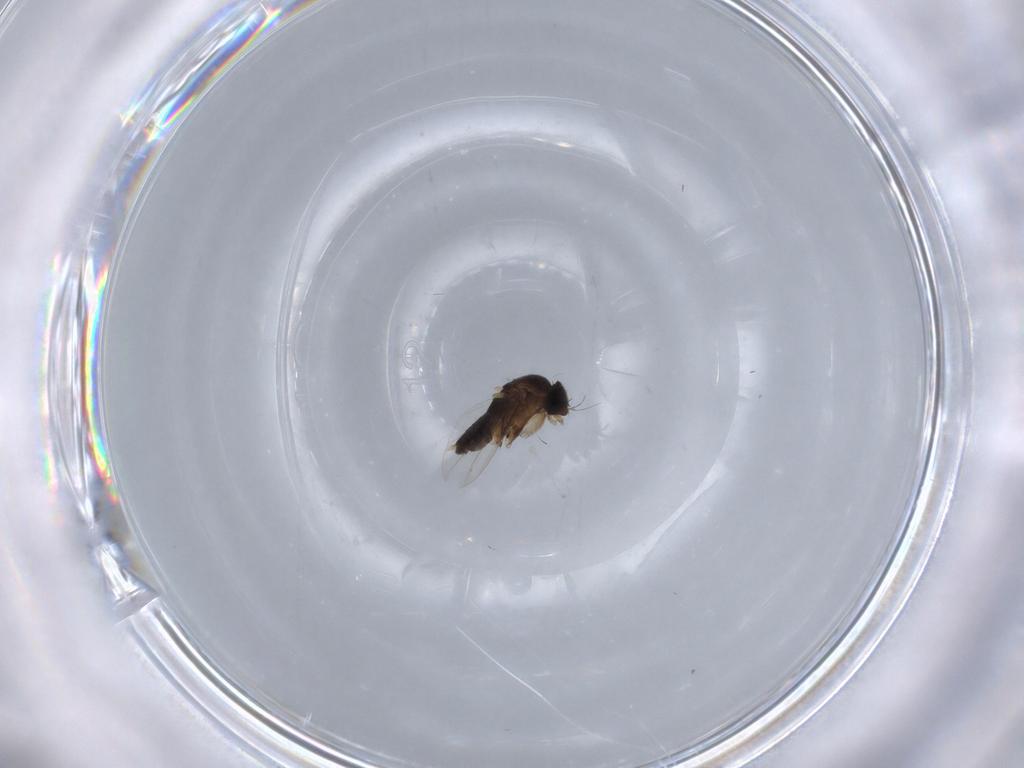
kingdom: Animalia
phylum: Arthropoda
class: Insecta
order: Diptera
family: Phoridae
